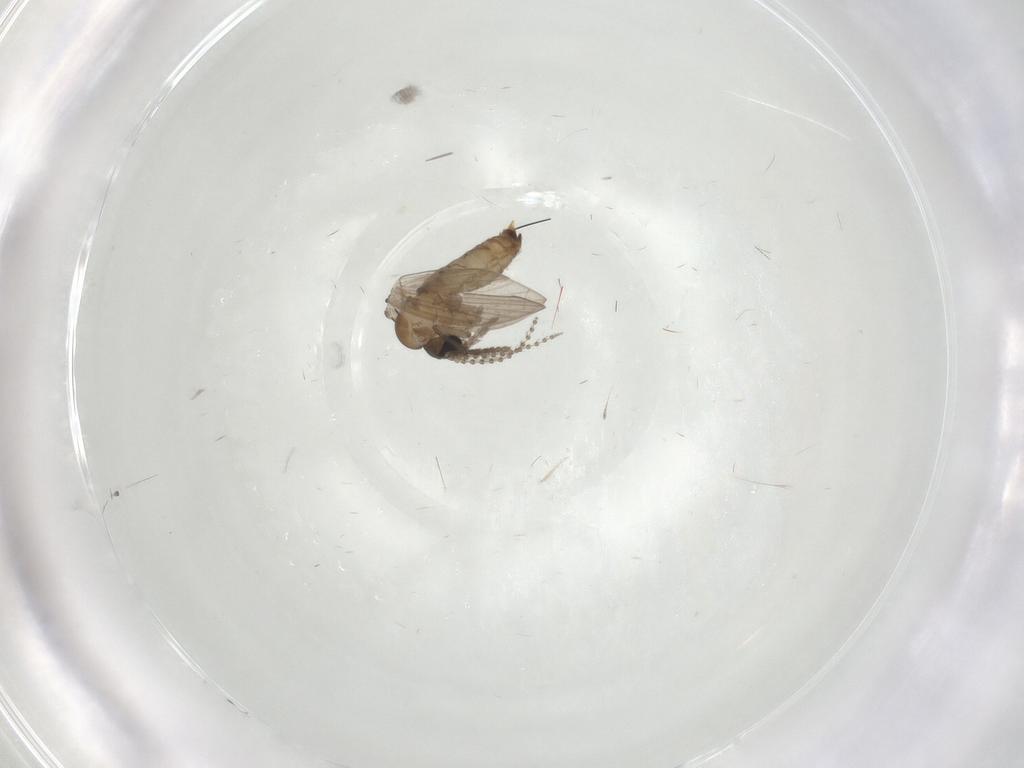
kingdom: Animalia
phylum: Arthropoda
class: Insecta
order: Diptera
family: Psychodidae
